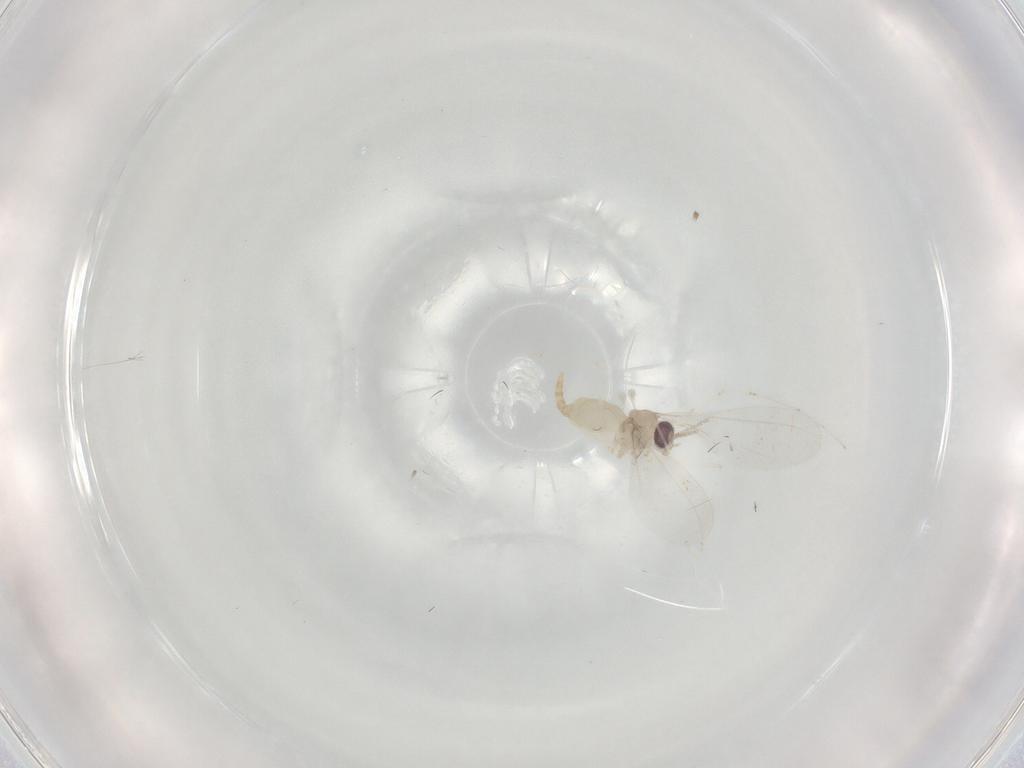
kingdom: Animalia
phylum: Arthropoda
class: Insecta
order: Diptera
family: Cecidomyiidae
